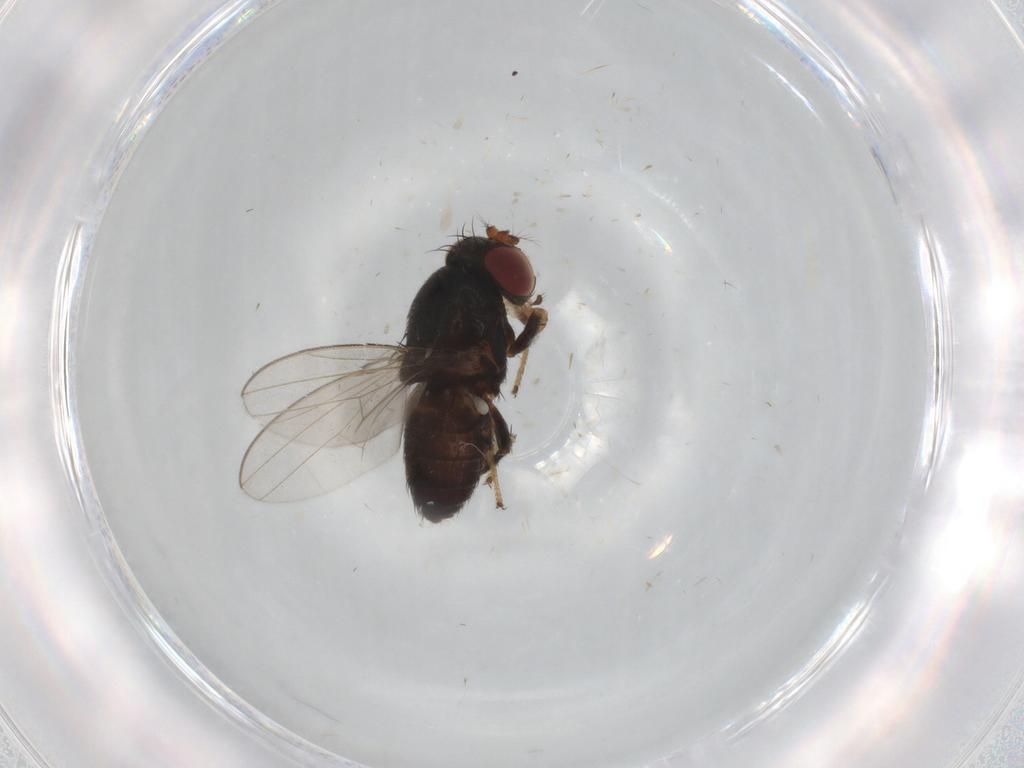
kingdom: Animalia
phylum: Arthropoda
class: Insecta
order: Diptera
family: Ephydridae
